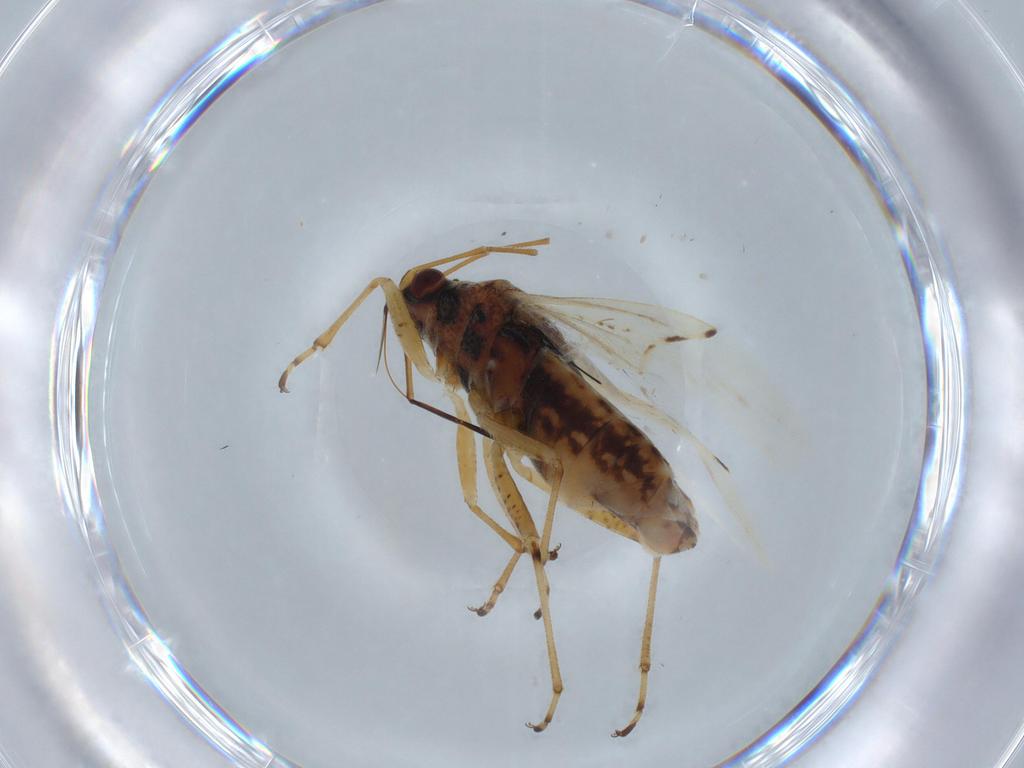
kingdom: Animalia
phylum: Arthropoda
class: Insecta
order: Hemiptera
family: Lygaeidae
